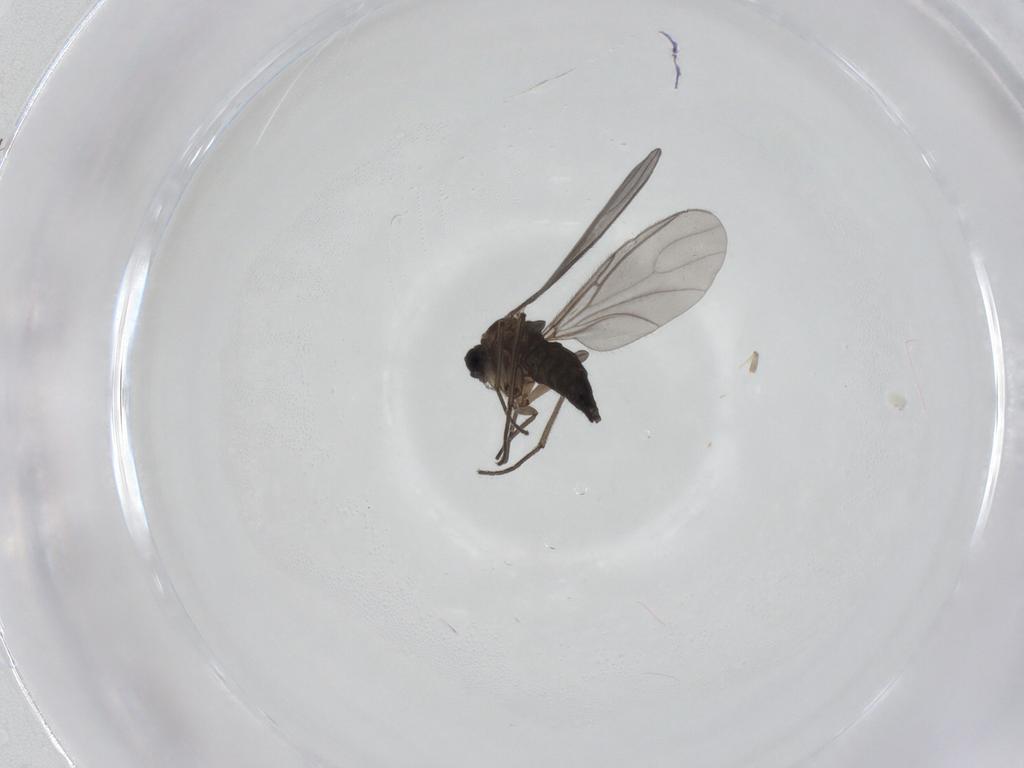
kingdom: Animalia
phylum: Arthropoda
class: Insecta
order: Diptera
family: Sciaridae
